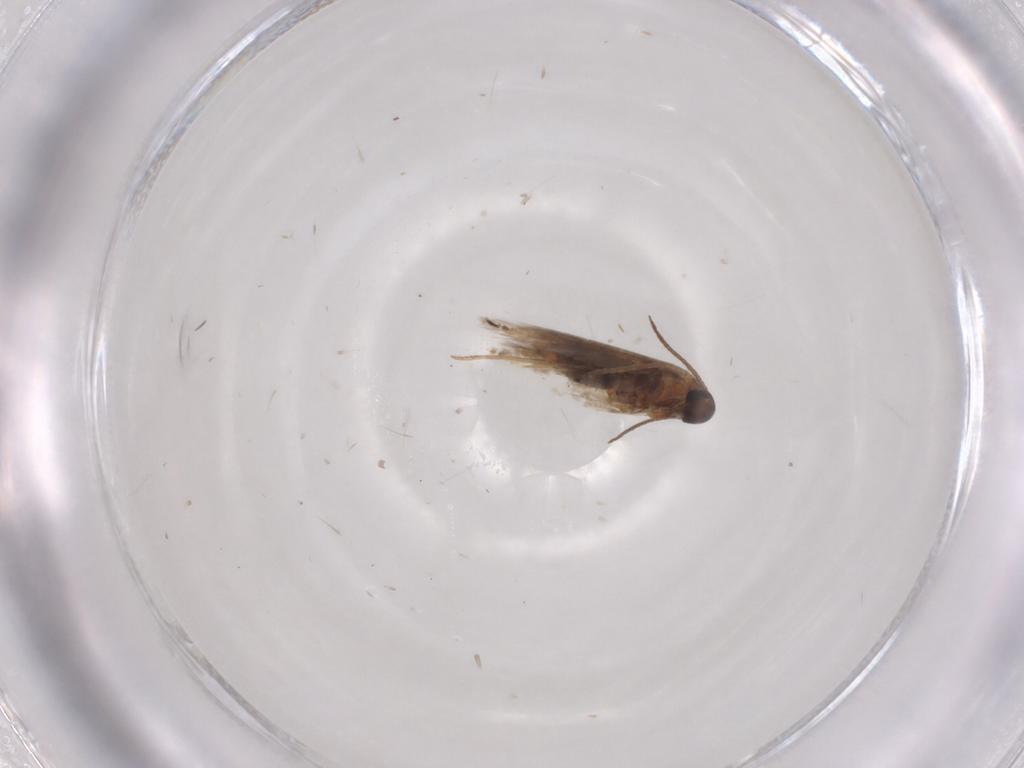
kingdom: Animalia
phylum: Arthropoda
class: Insecta
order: Lepidoptera
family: Heliozelidae
